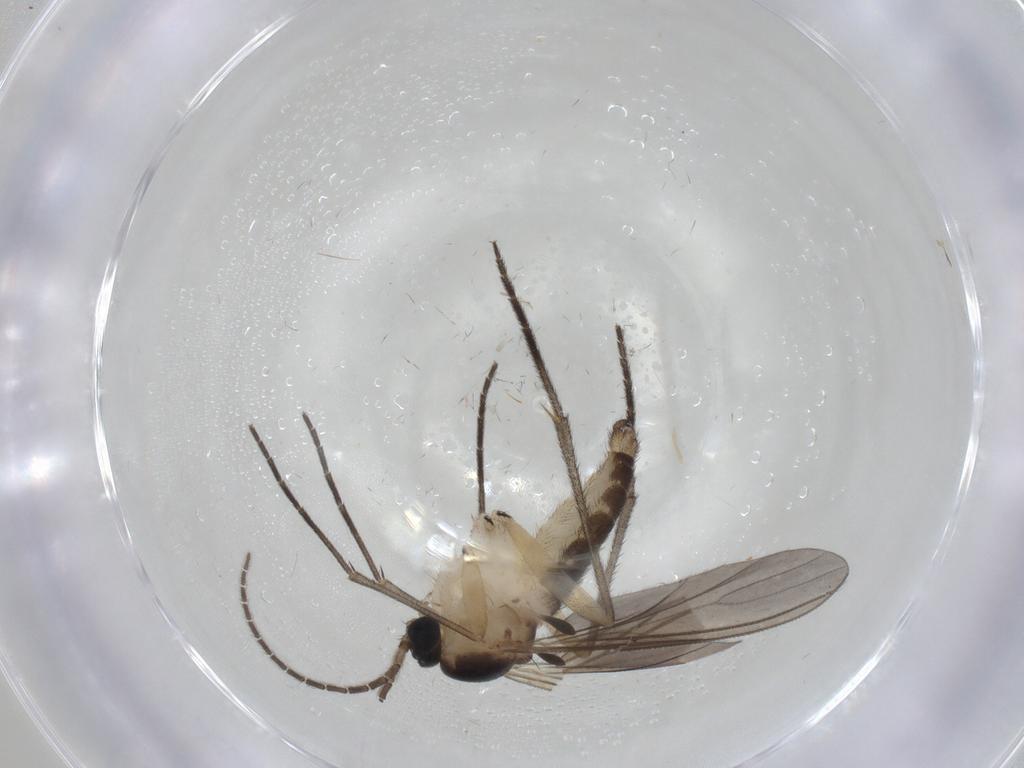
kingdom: Animalia
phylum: Arthropoda
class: Insecta
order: Diptera
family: Sciaridae
